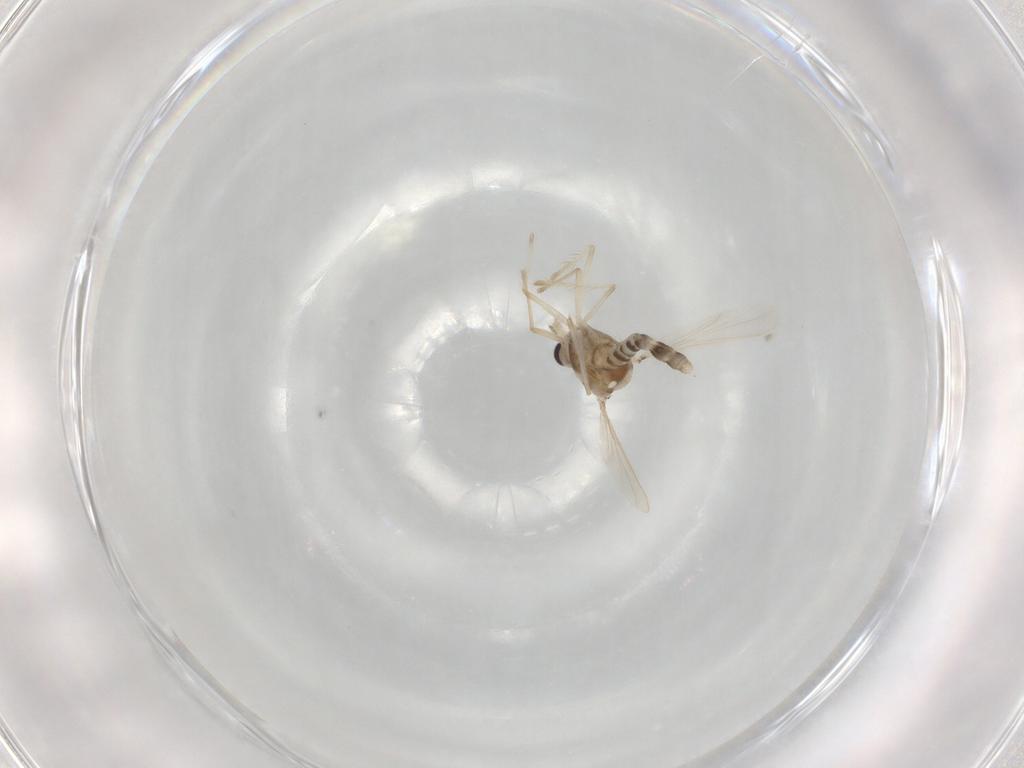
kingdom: Animalia
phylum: Arthropoda
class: Insecta
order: Diptera
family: Chironomidae
